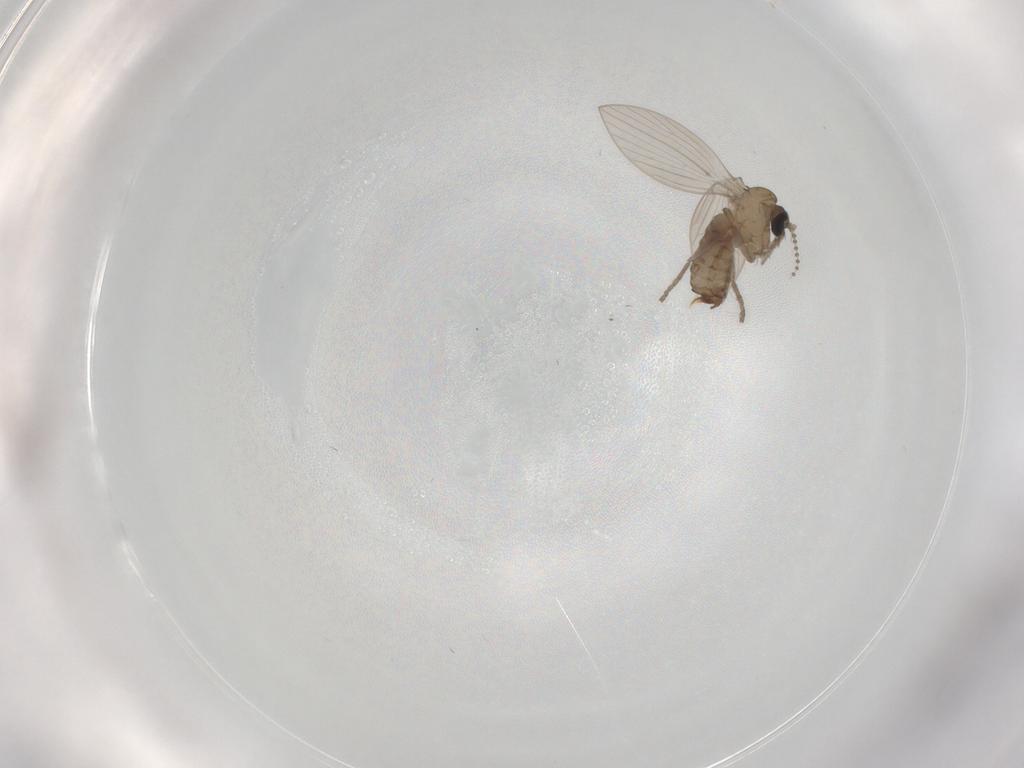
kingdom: Animalia
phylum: Arthropoda
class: Insecta
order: Diptera
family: Psychodidae
